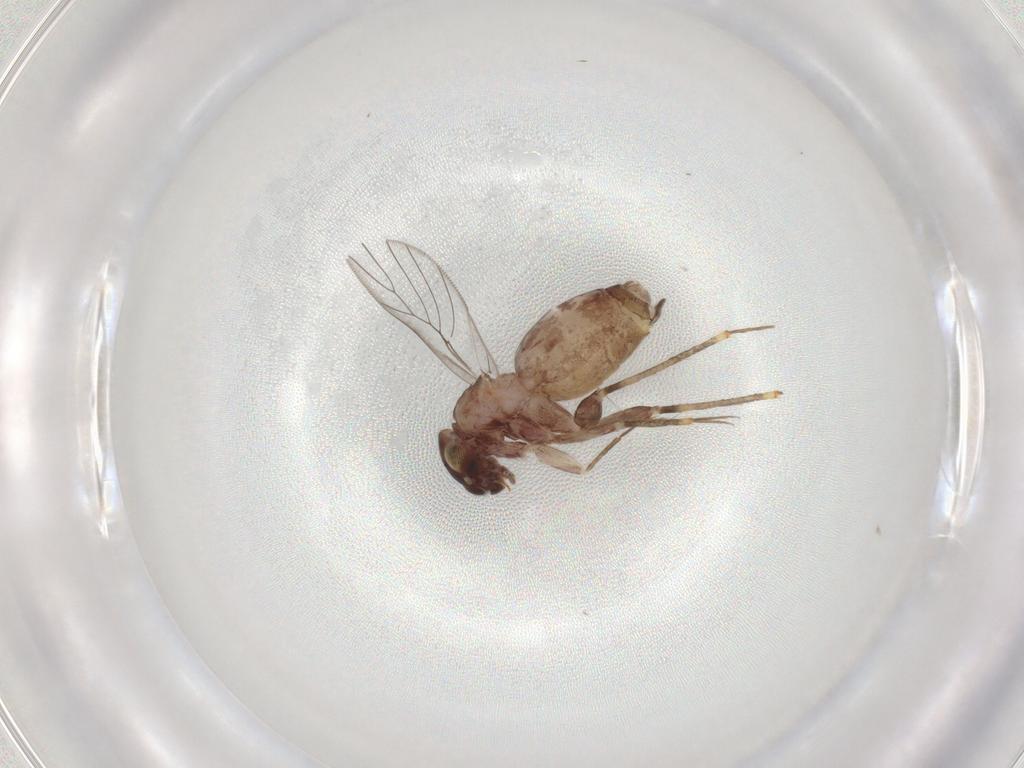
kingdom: Animalia
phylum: Arthropoda
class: Insecta
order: Psocodea
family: Lepidopsocidae
